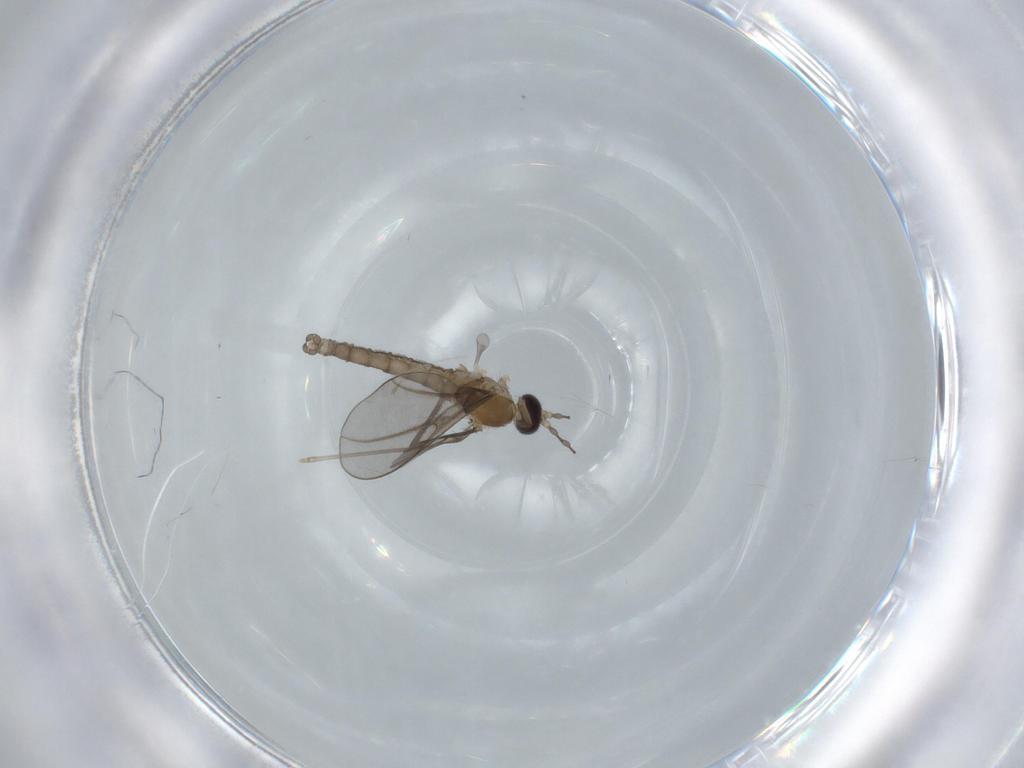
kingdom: Animalia
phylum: Arthropoda
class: Insecta
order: Diptera
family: Cecidomyiidae
